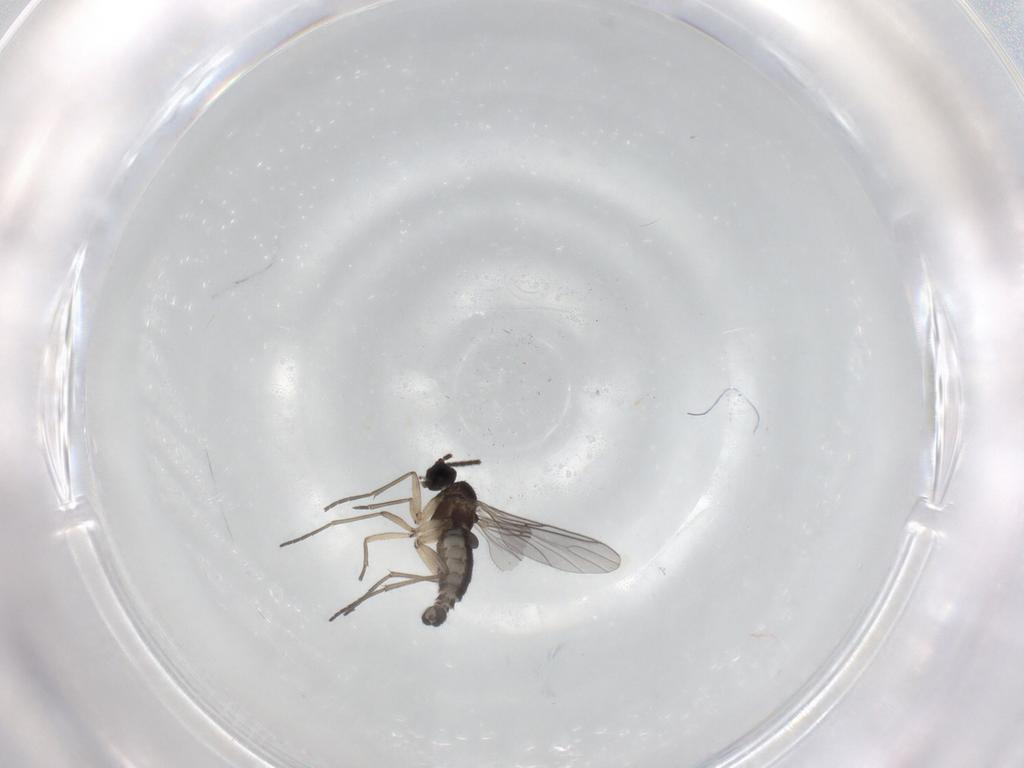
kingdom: Animalia
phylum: Arthropoda
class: Insecta
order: Diptera
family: Sciaridae
